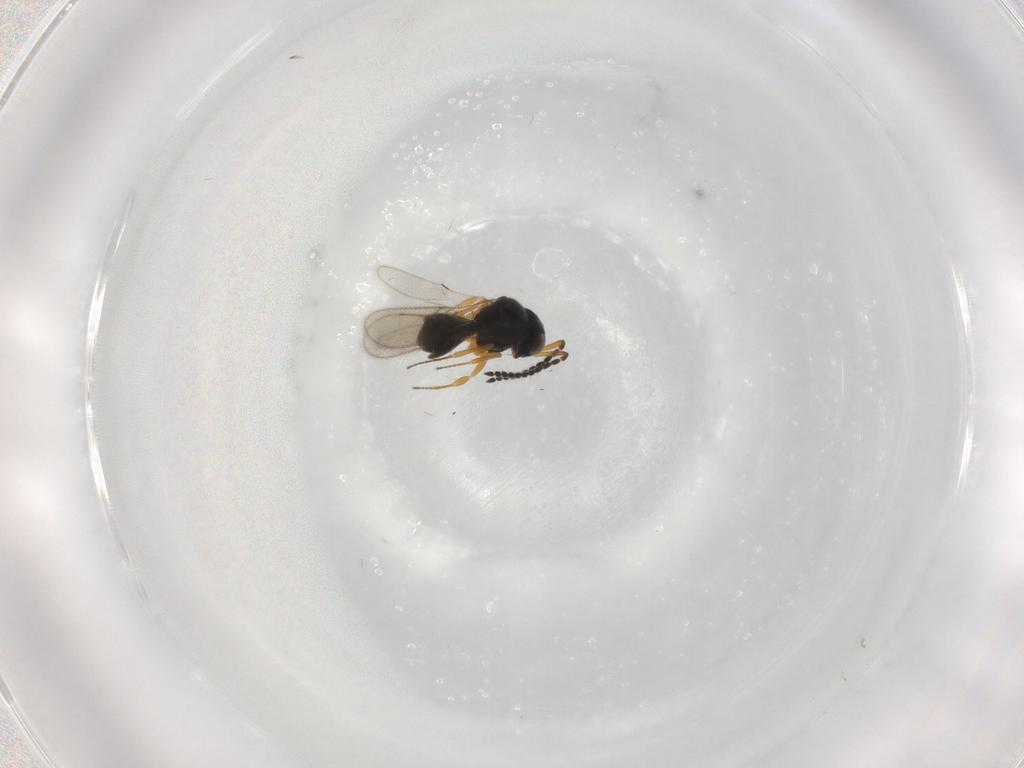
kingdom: Animalia
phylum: Arthropoda
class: Insecta
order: Hymenoptera
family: Scelionidae
